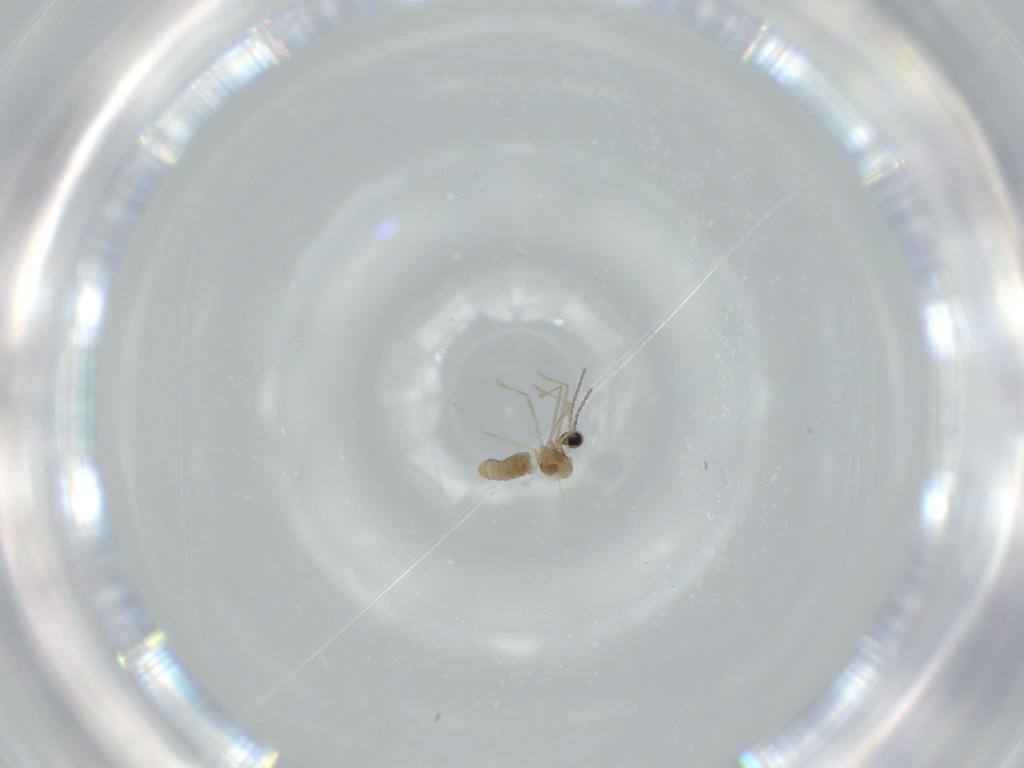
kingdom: Animalia
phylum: Arthropoda
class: Insecta
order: Diptera
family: Cecidomyiidae
